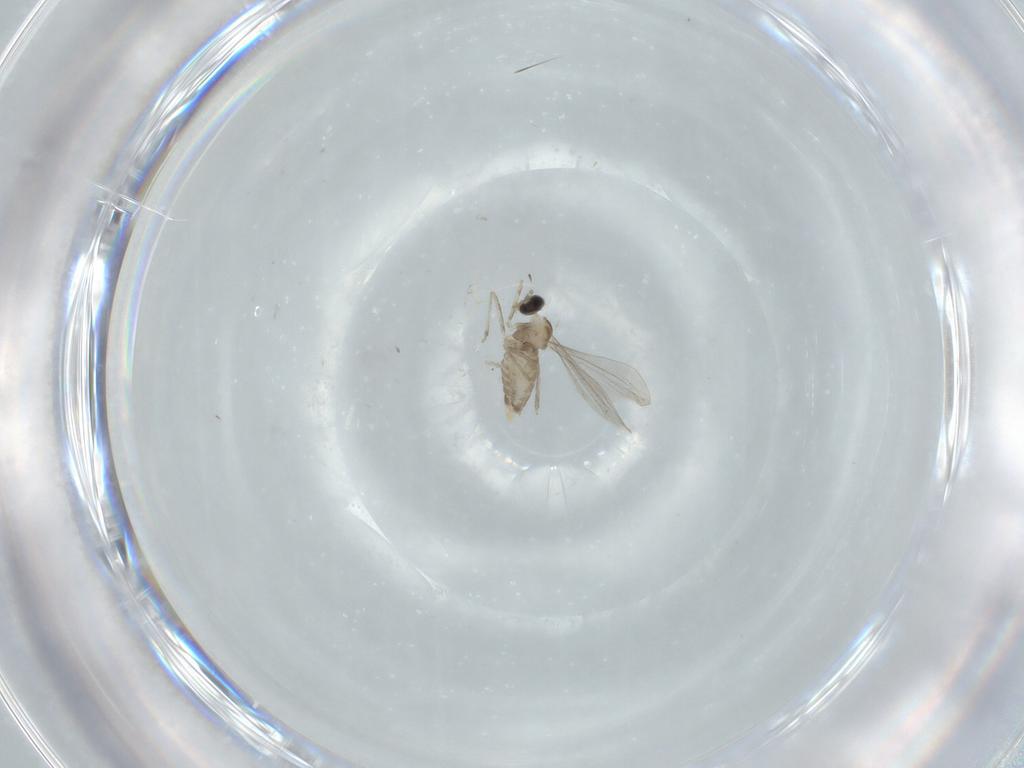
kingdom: Animalia
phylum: Arthropoda
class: Insecta
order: Diptera
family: Cecidomyiidae
